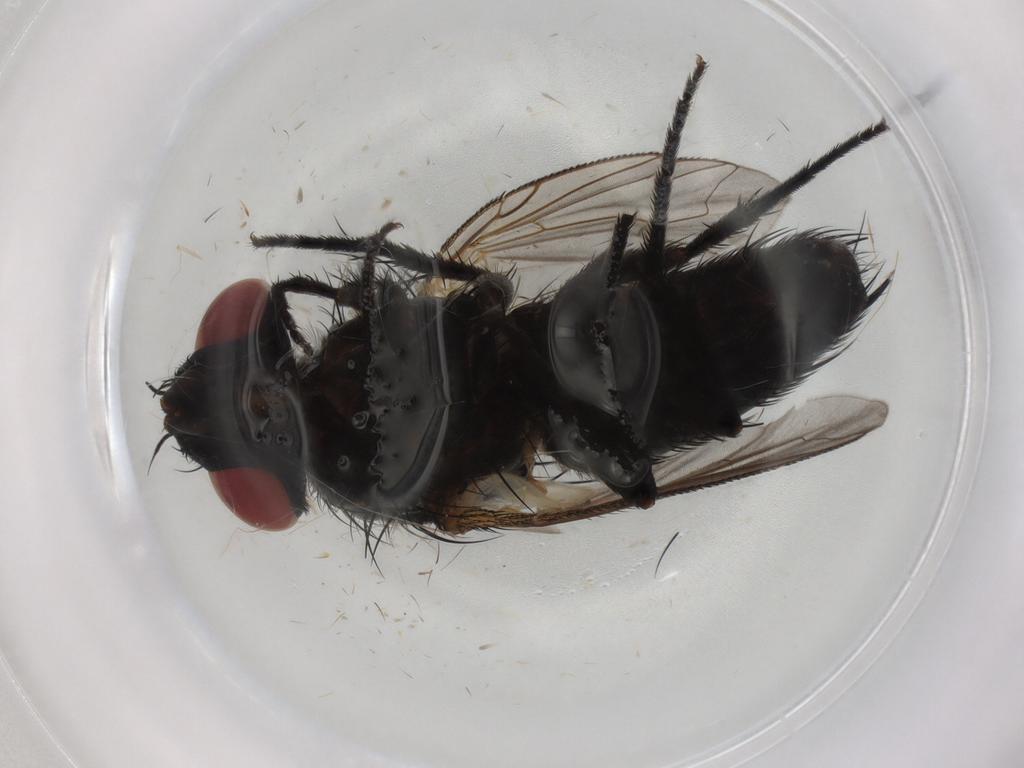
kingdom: Animalia
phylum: Arthropoda
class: Insecta
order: Diptera
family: Sarcophagidae
